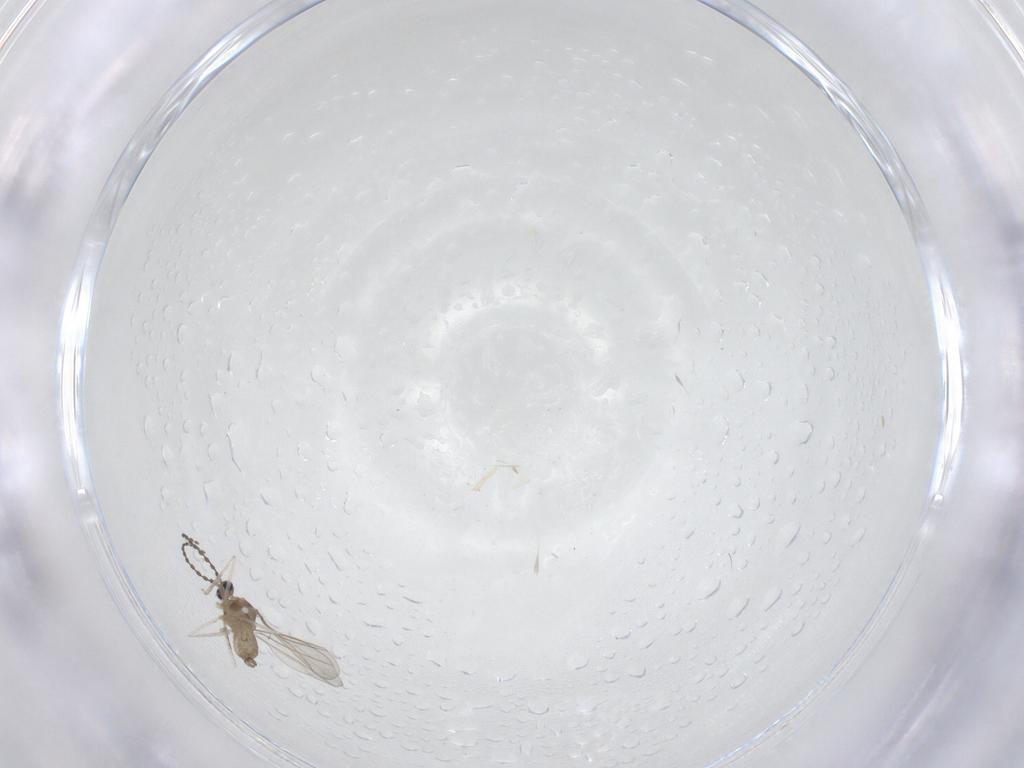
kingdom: Animalia
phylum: Arthropoda
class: Insecta
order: Diptera
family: Cecidomyiidae
